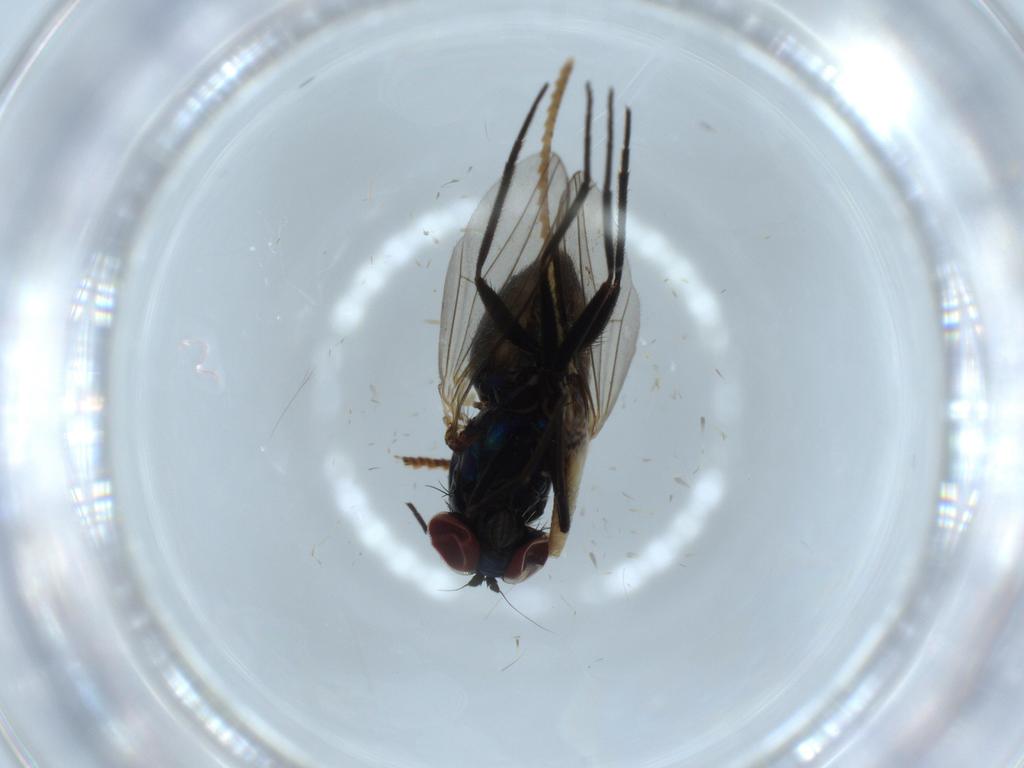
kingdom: Animalia
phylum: Arthropoda
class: Insecta
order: Diptera
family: Dolichopodidae
